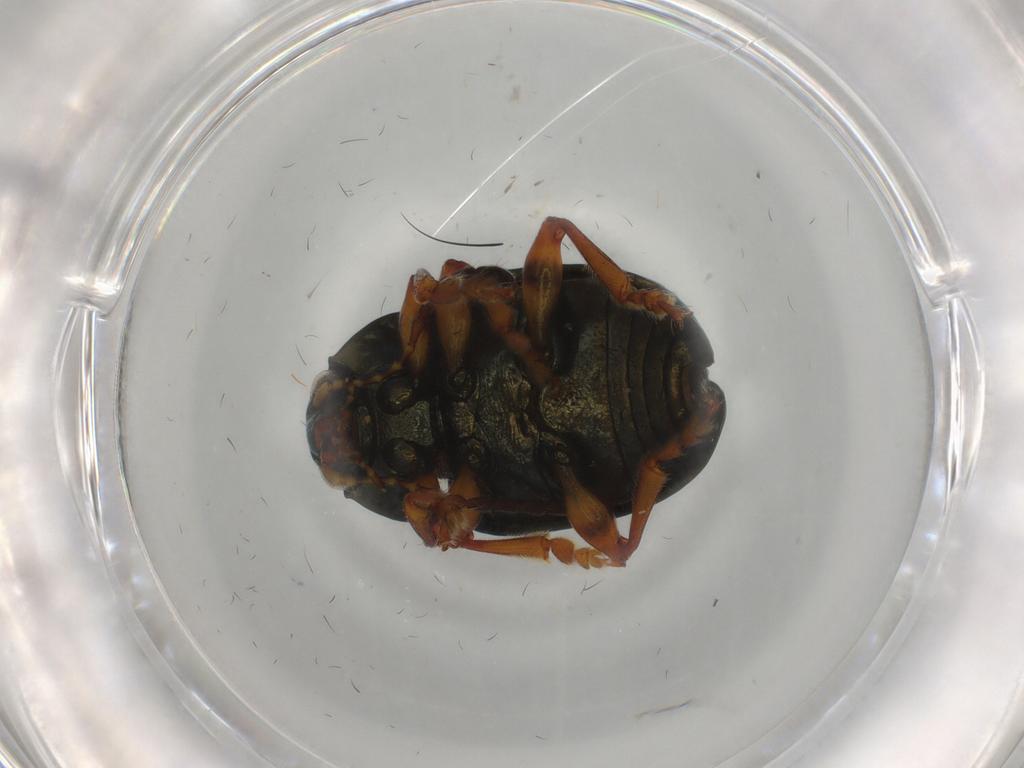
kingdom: Animalia
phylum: Arthropoda
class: Insecta
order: Coleoptera
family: Chrysomelidae
